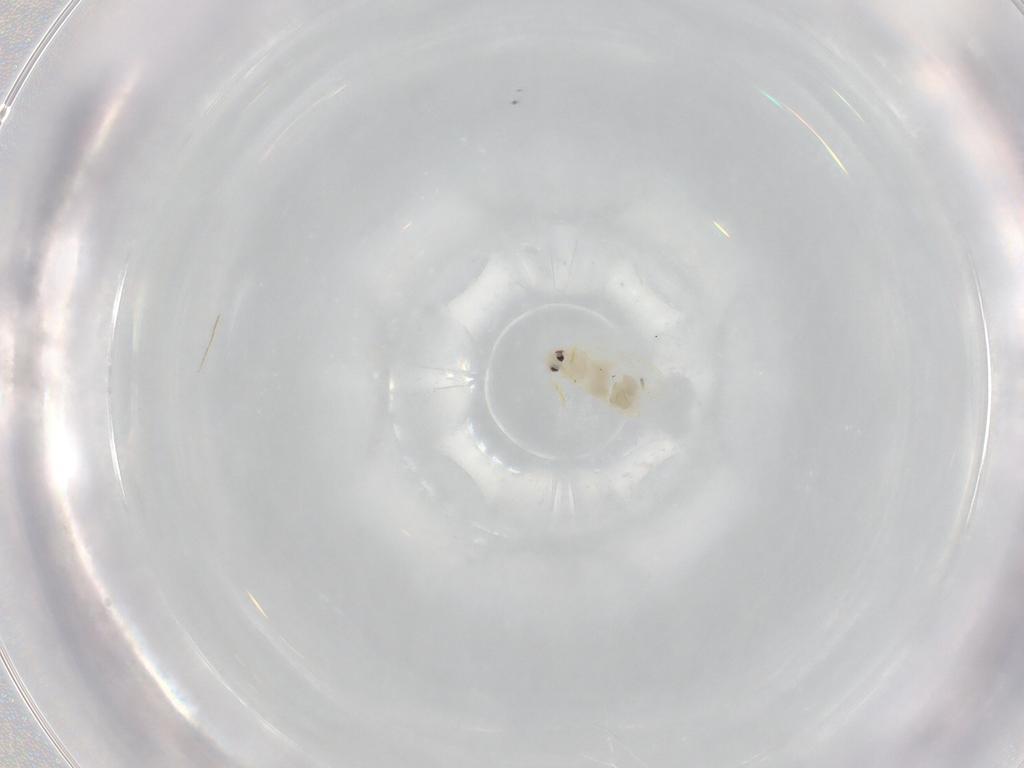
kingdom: Animalia
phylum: Arthropoda
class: Insecta
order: Hemiptera
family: Aleyrodidae
